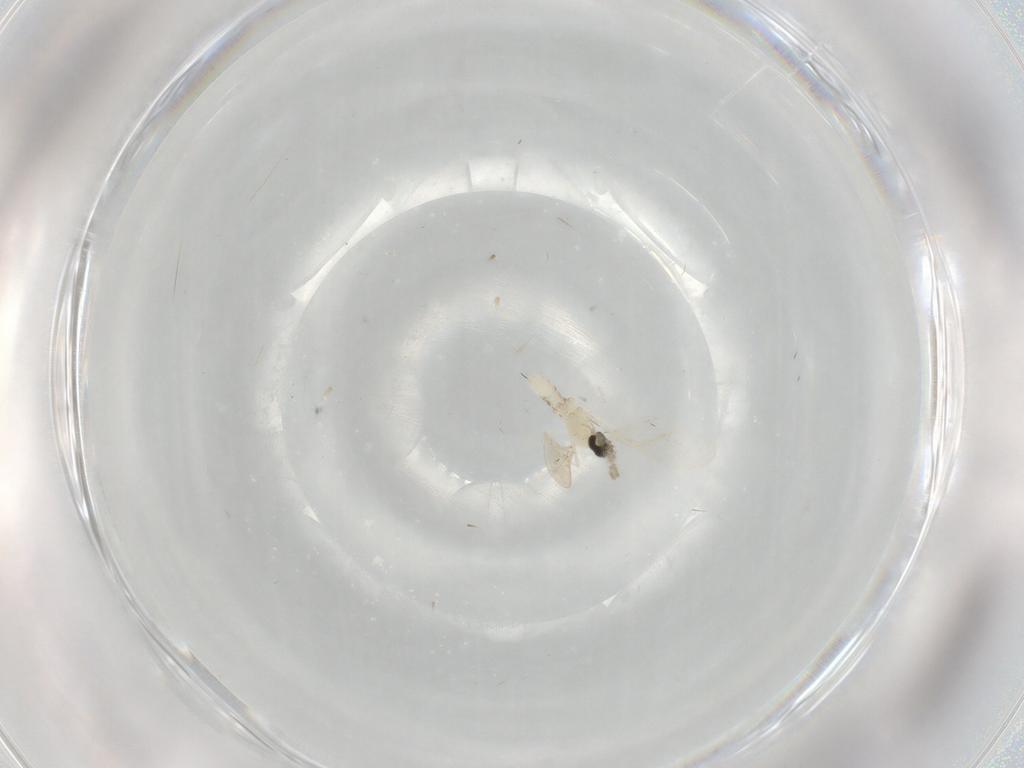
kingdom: Animalia
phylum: Arthropoda
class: Insecta
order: Diptera
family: Cecidomyiidae
